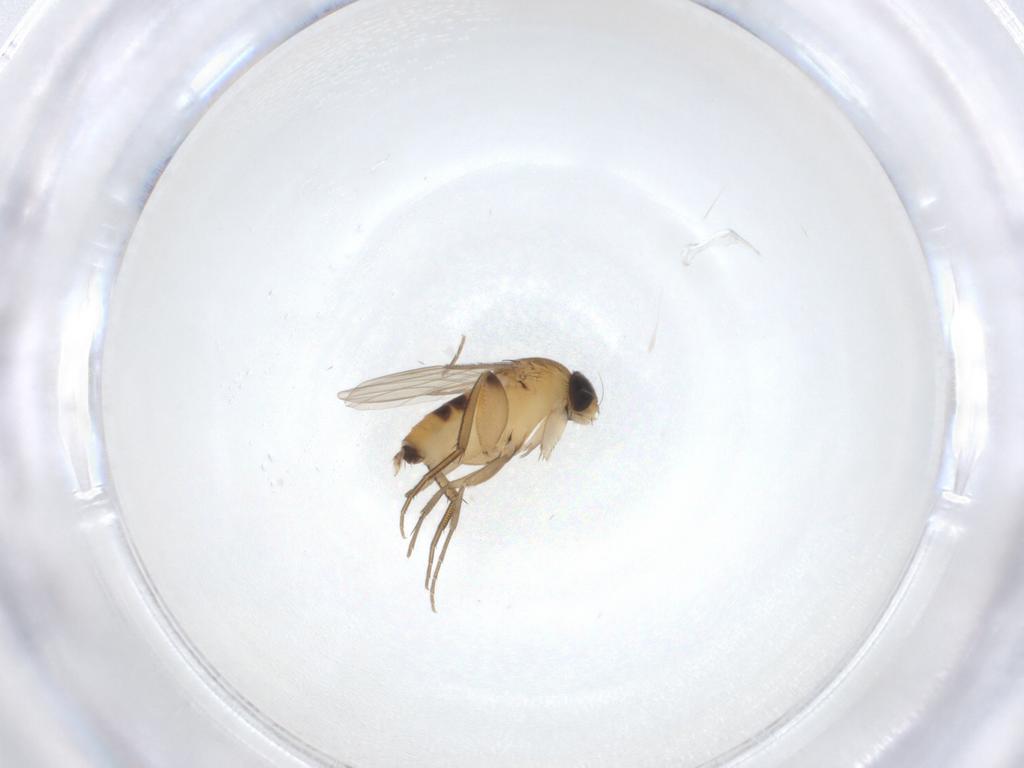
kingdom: Animalia
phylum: Arthropoda
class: Insecta
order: Diptera
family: Phoridae
